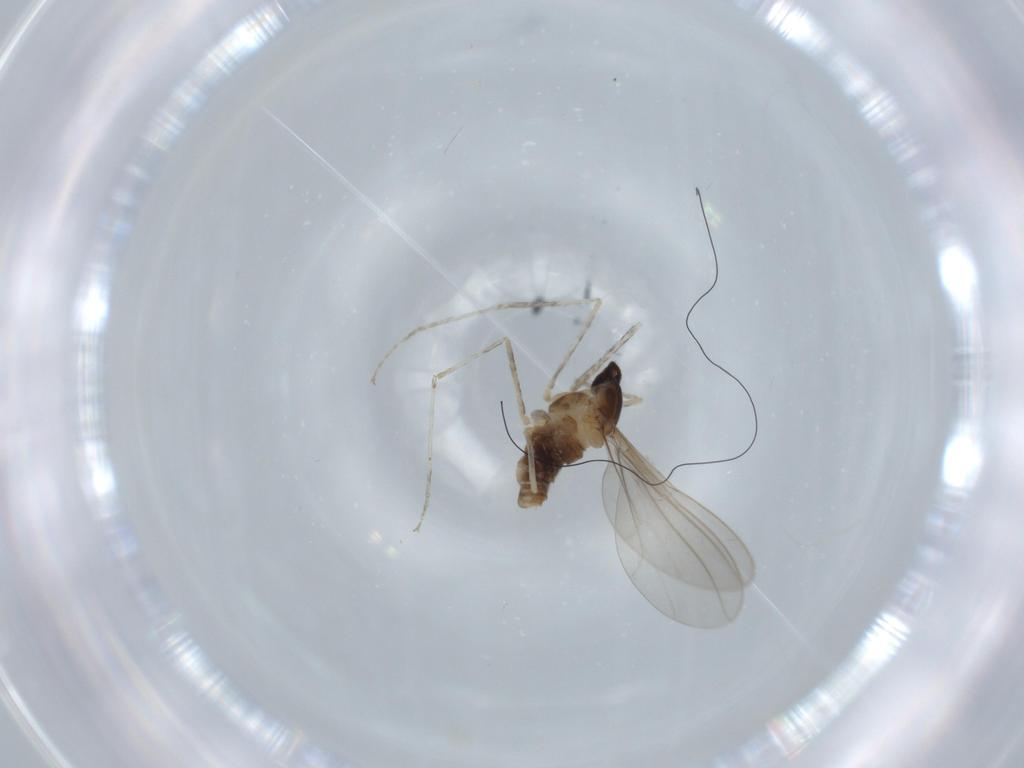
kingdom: Animalia
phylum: Arthropoda
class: Insecta
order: Diptera
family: Cecidomyiidae
